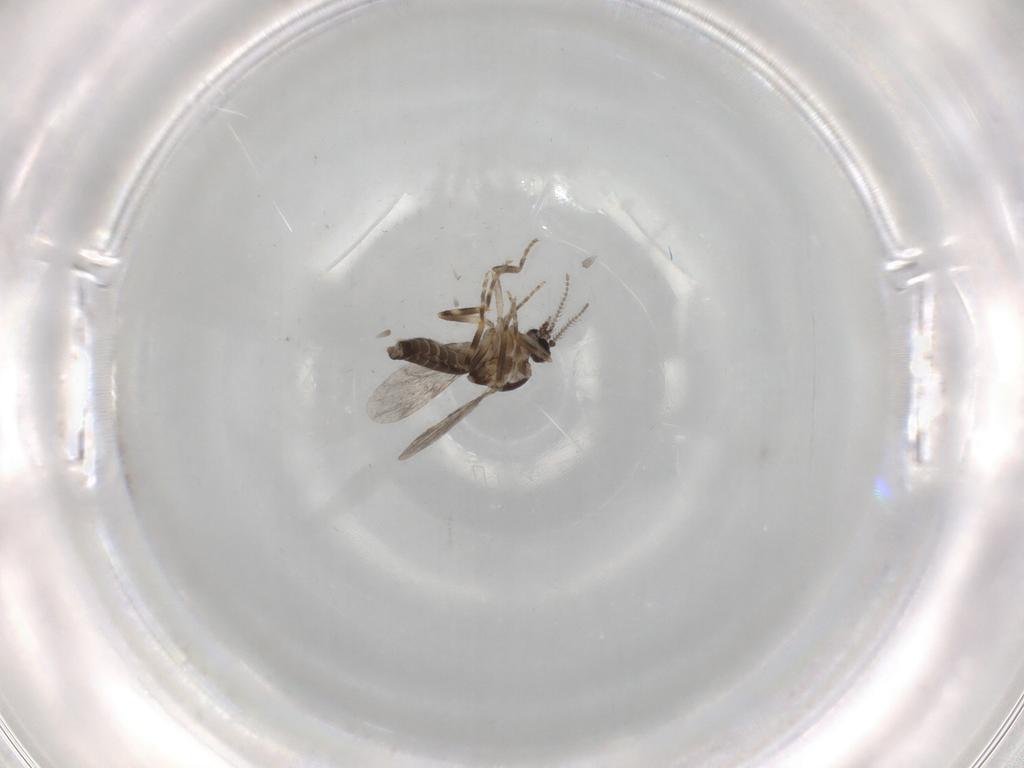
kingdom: Animalia
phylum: Arthropoda
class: Insecta
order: Diptera
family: Ceratopogonidae
